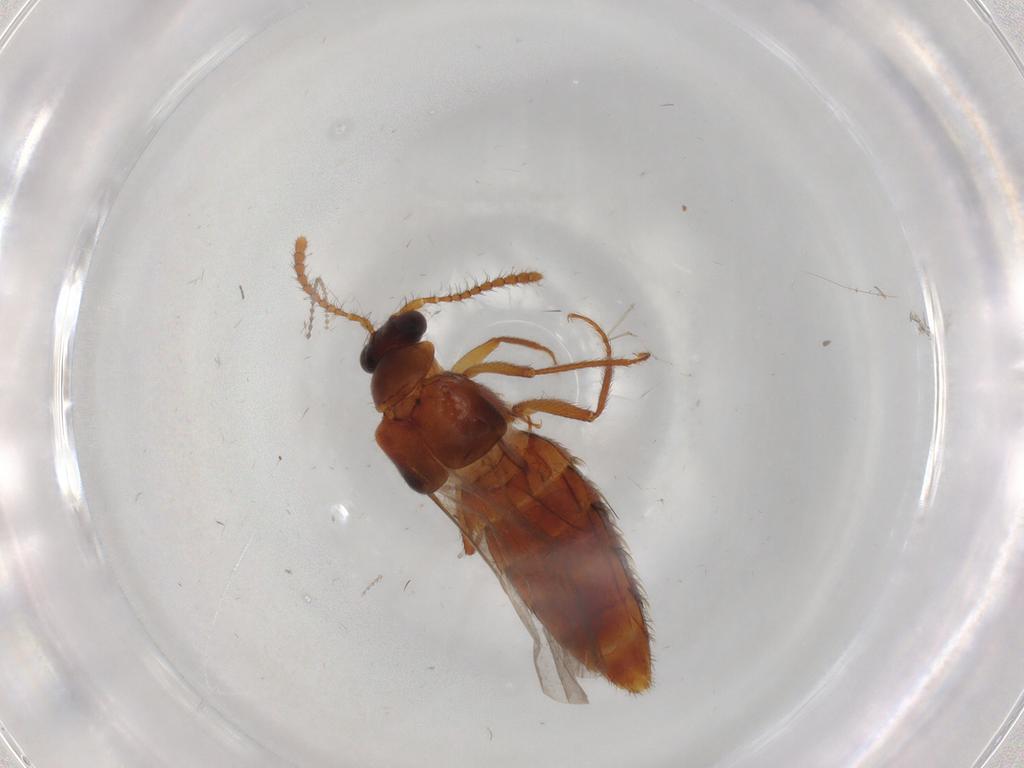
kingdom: Animalia
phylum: Arthropoda
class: Insecta
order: Coleoptera
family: Staphylinidae
